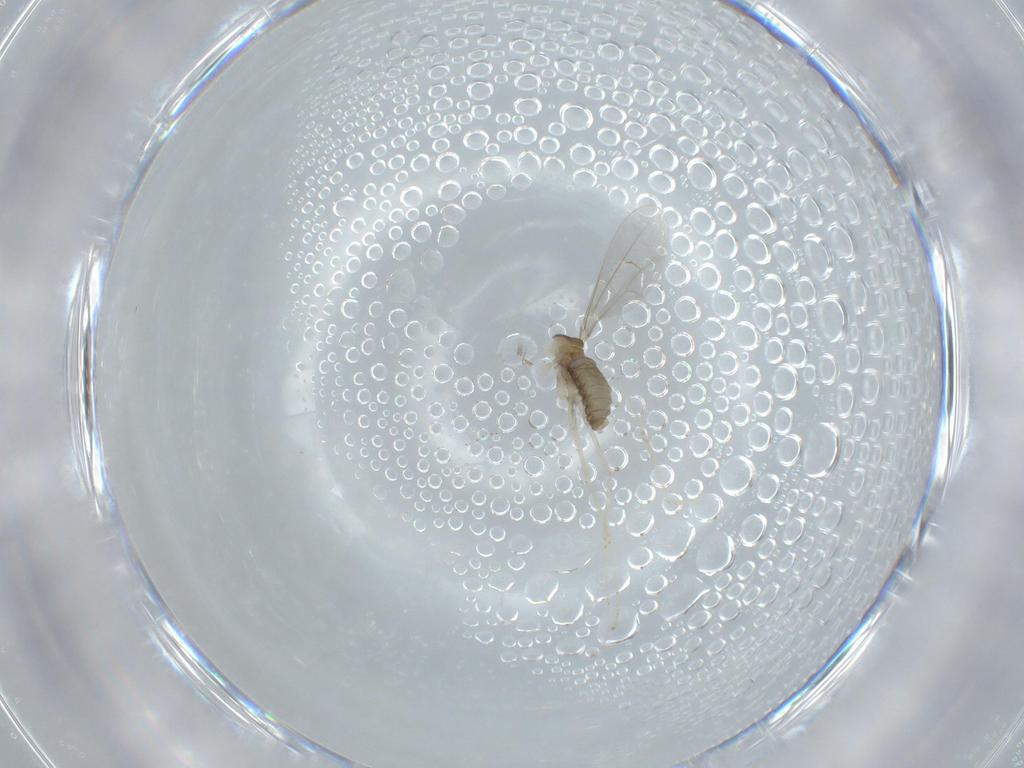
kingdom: Animalia
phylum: Arthropoda
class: Insecta
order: Diptera
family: Cecidomyiidae
